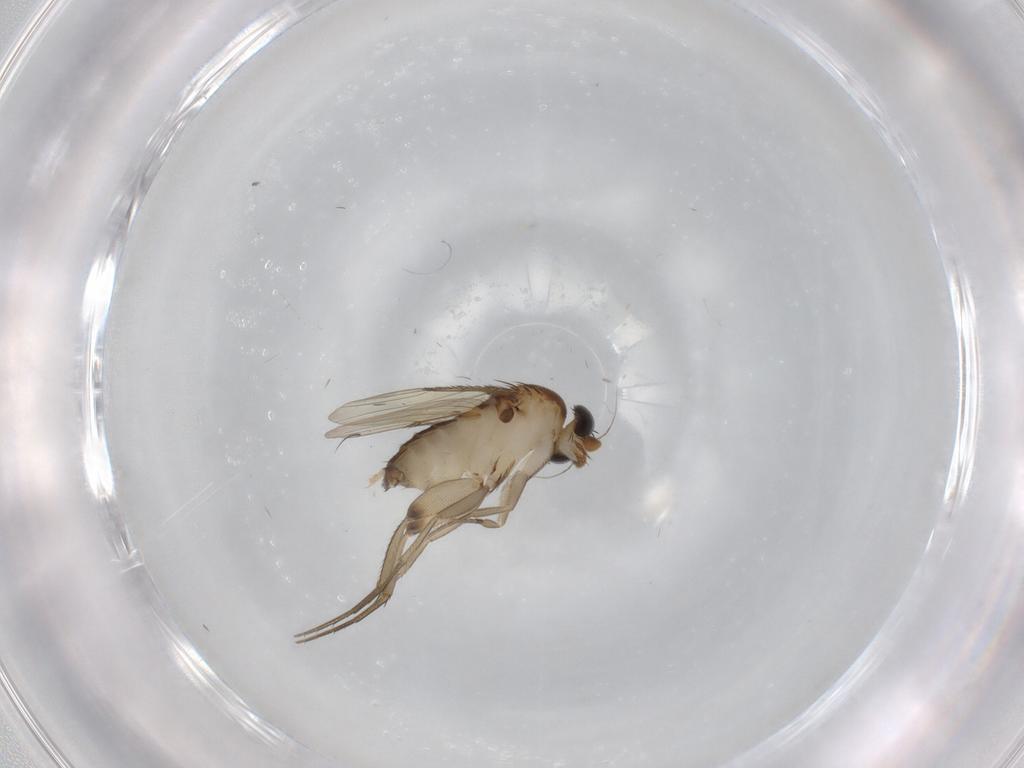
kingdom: Animalia
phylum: Arthropoda
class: Insecta
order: Diptera
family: Phoridae
